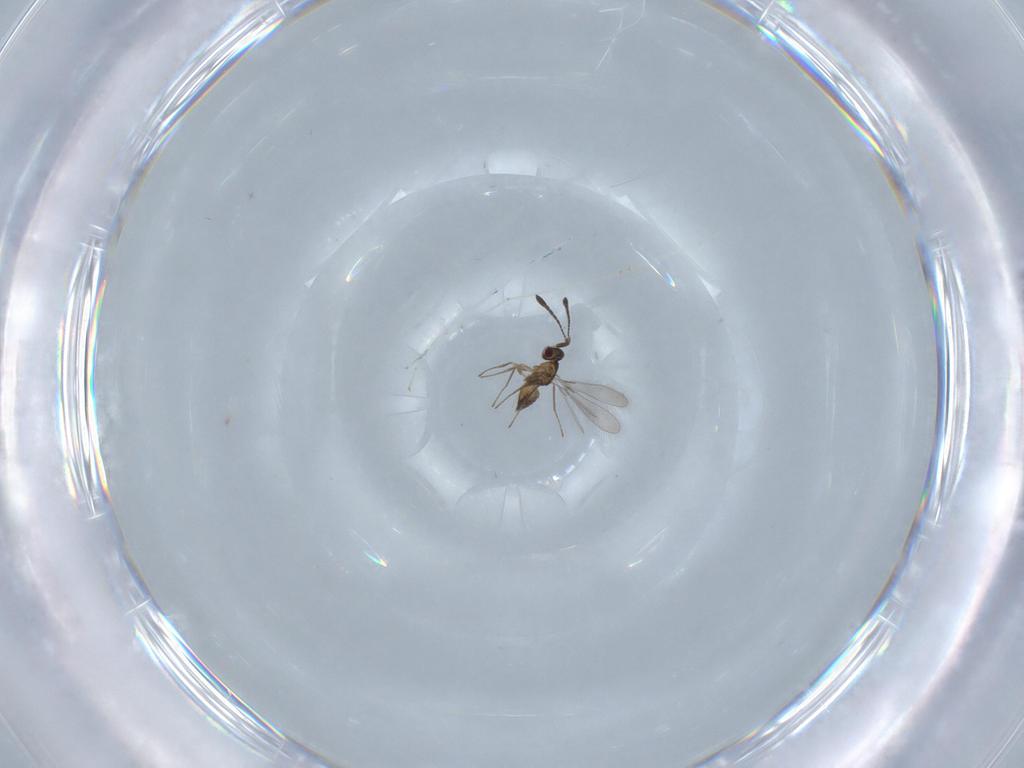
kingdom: Animalia
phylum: Arthropoda
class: Insecta
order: Hymenoptera
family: Mymaridae
